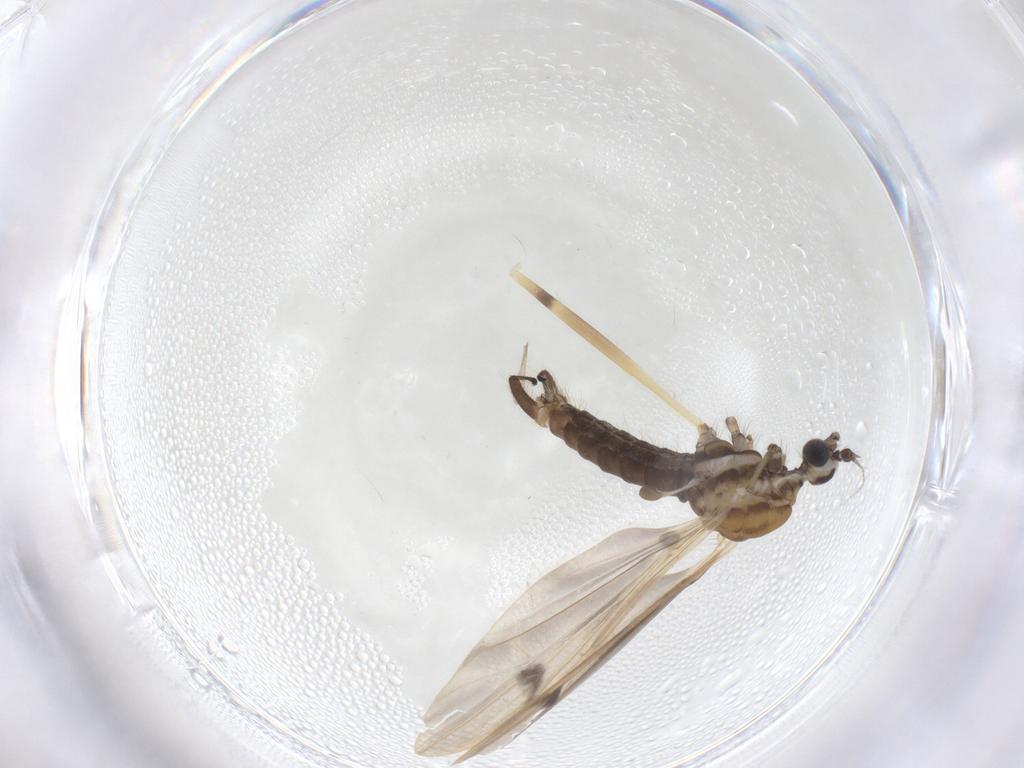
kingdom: Animalia
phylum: Arthropoda
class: Insecta
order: Diptera
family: Limoniidae
